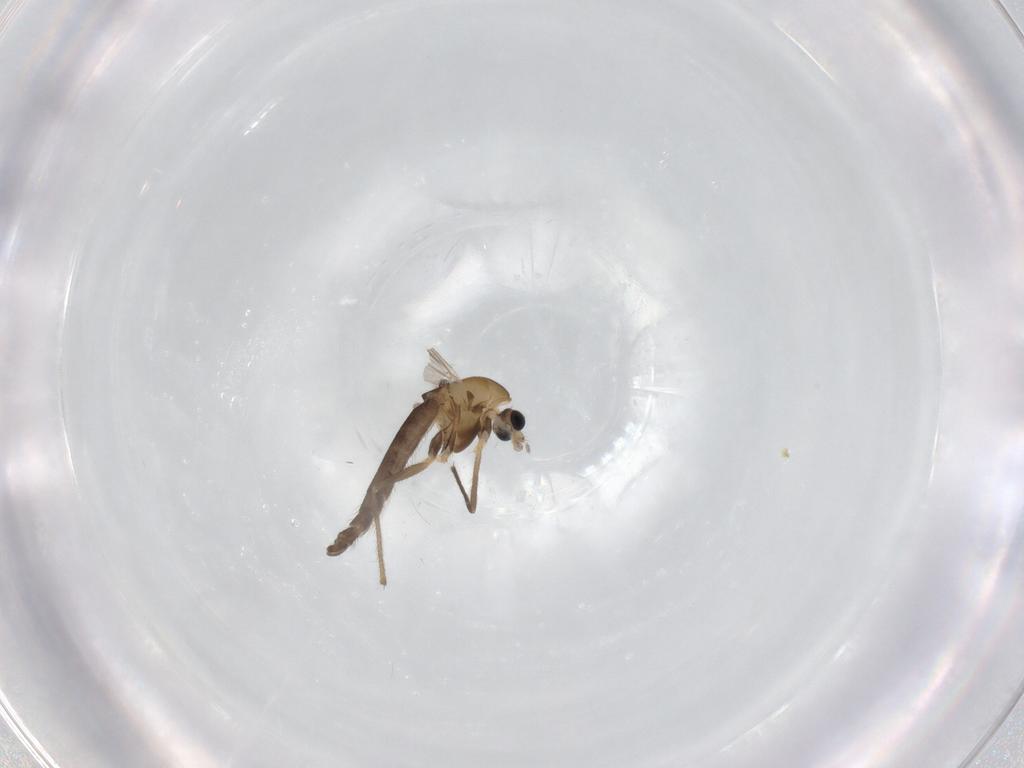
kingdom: Animalia
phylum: Arthropoda
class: Insecta
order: Diptera
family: Chironomidae
